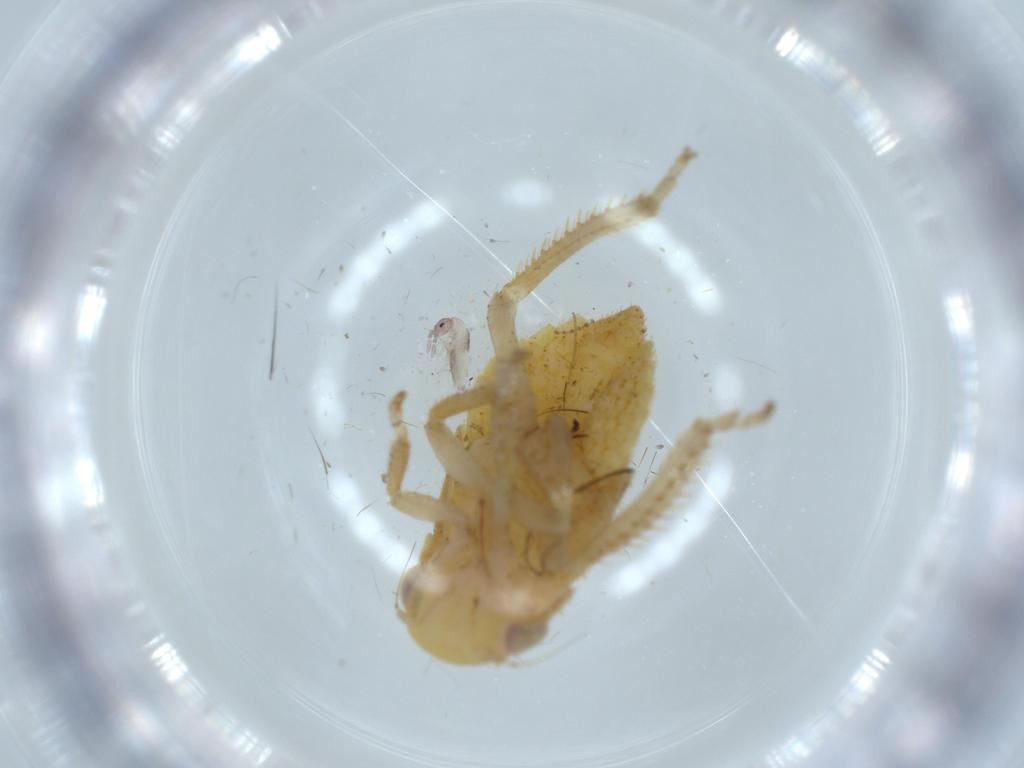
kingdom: Animalia
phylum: Arthropoda
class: Insecta
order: Hemiptera
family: Cicadellidae
